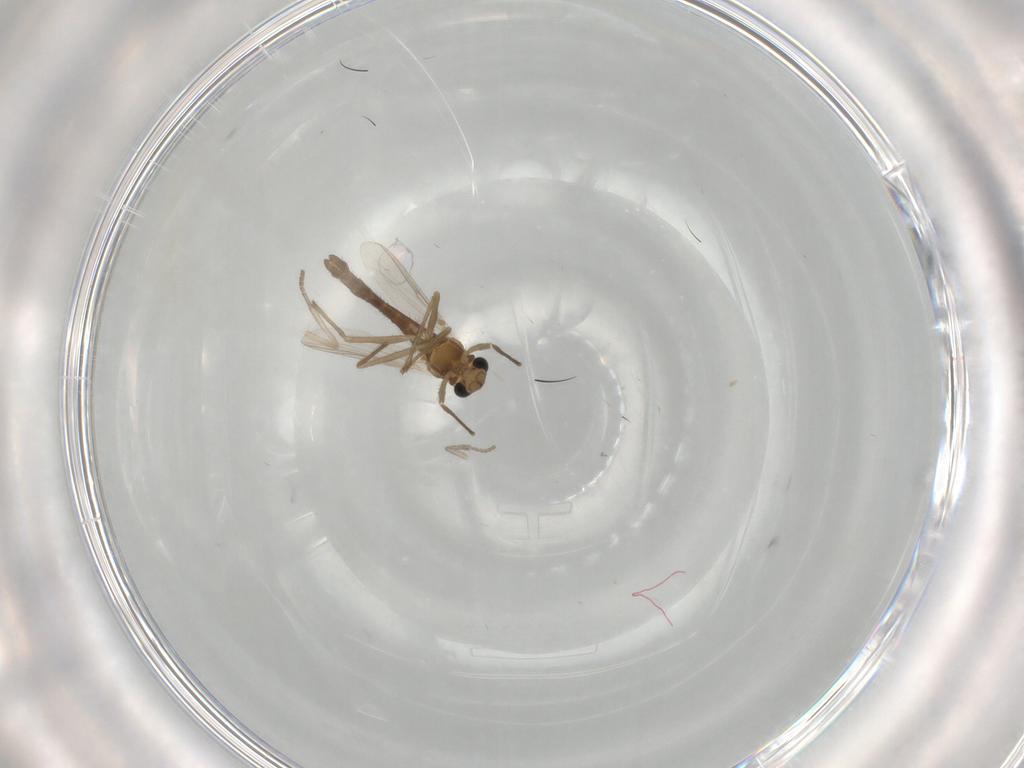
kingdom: Animalia
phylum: Arthropoda
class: Insecta
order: Diptera
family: Chironomidae
